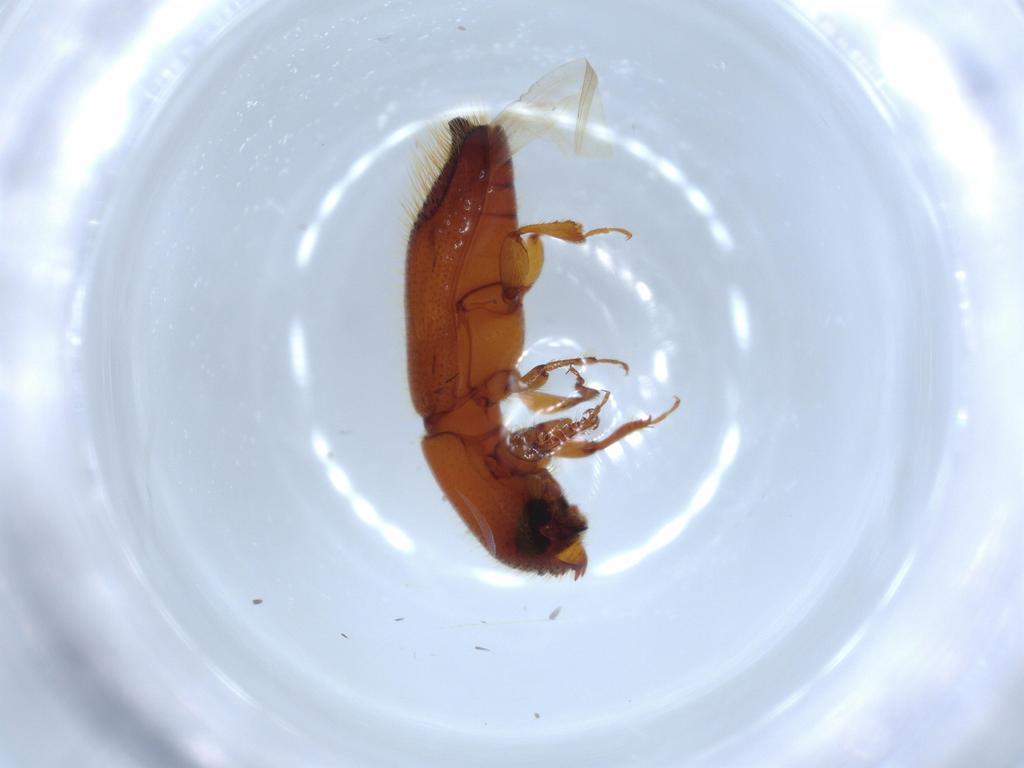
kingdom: Animalia
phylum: Arthropoda
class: Insecta
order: Coleoptera
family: Curculionidae
